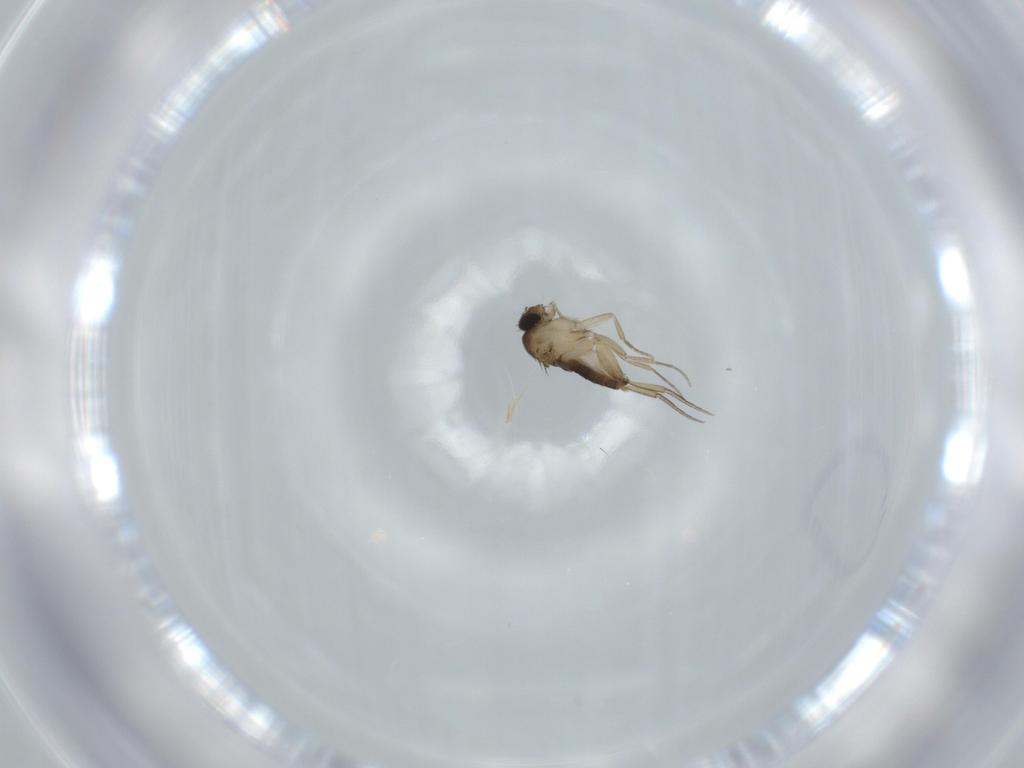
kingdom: Animalia
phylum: Arthropoda
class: Insecta
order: Diptera
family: Phoridae
